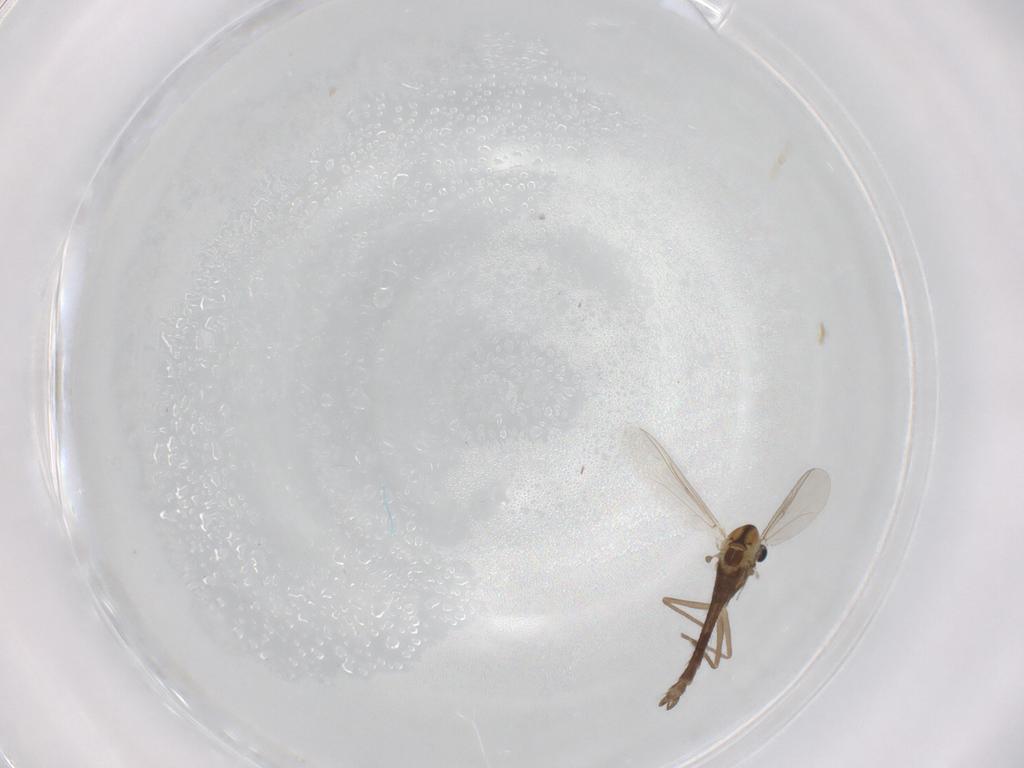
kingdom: Animalia
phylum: Arthropoda
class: Insecta
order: Diptera
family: Chironomidae
